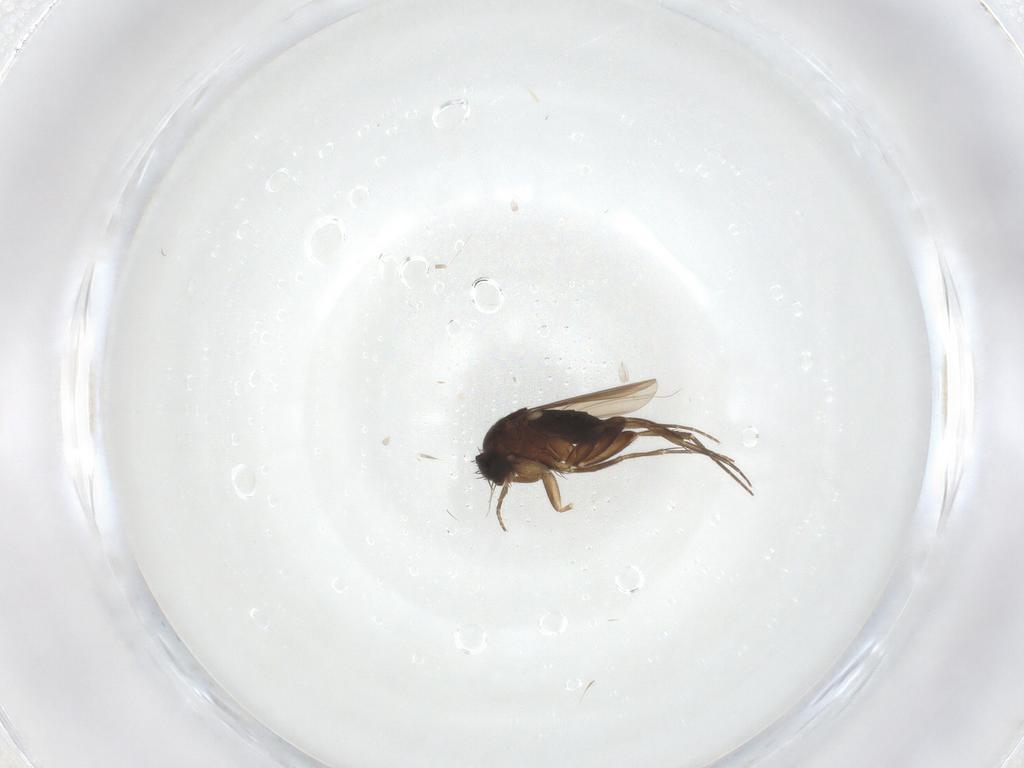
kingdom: Animalia
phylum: Arthropoda
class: Insecta
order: Diptera
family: Phoridae
